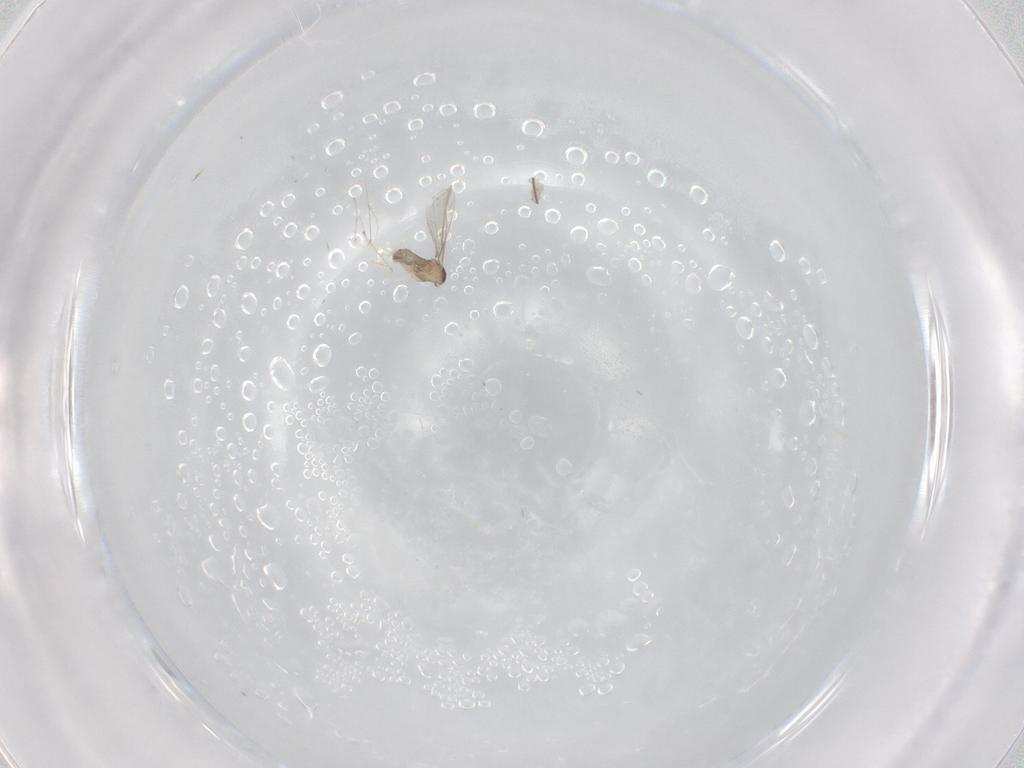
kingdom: Animalia
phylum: Arthropoda
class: Insecta
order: Diptera
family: Cecidomyiidae
